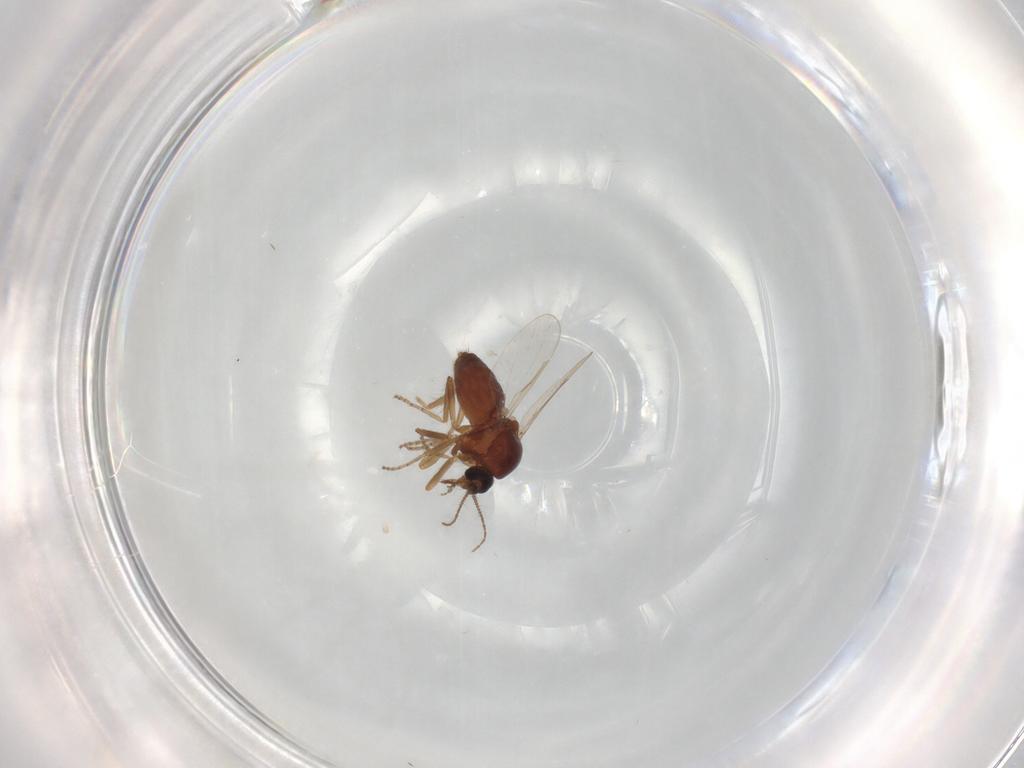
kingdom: Animalia
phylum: Arthropoda
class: Insecta
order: Diptera
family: Ceratopogonidae
